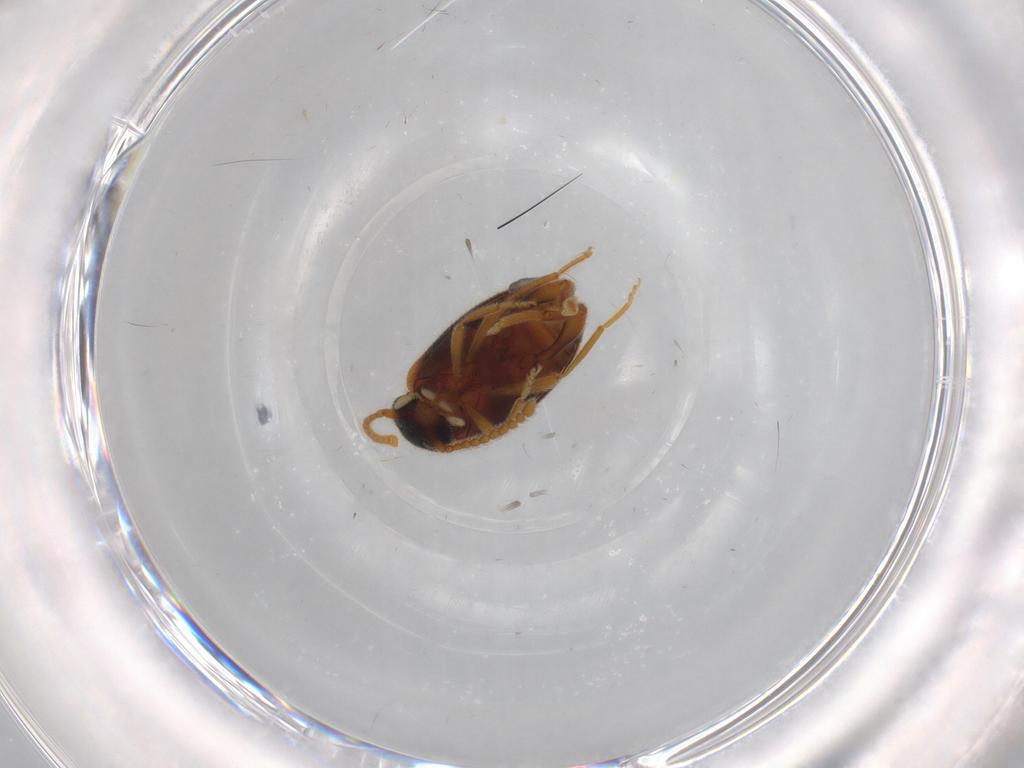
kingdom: Animalia
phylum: Arthropoda
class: Insecta
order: Coleoptera
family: Aderidae
